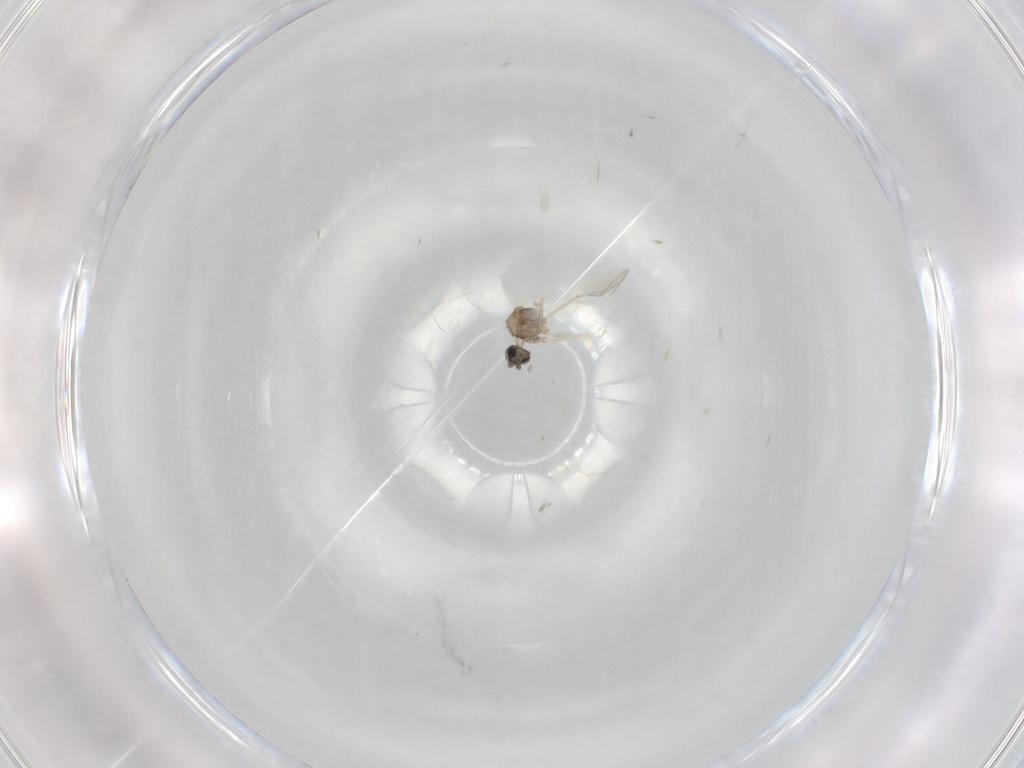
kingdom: Animalia
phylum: Arthropoda
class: Insecta
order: Diptera
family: Cecidomyiidae
